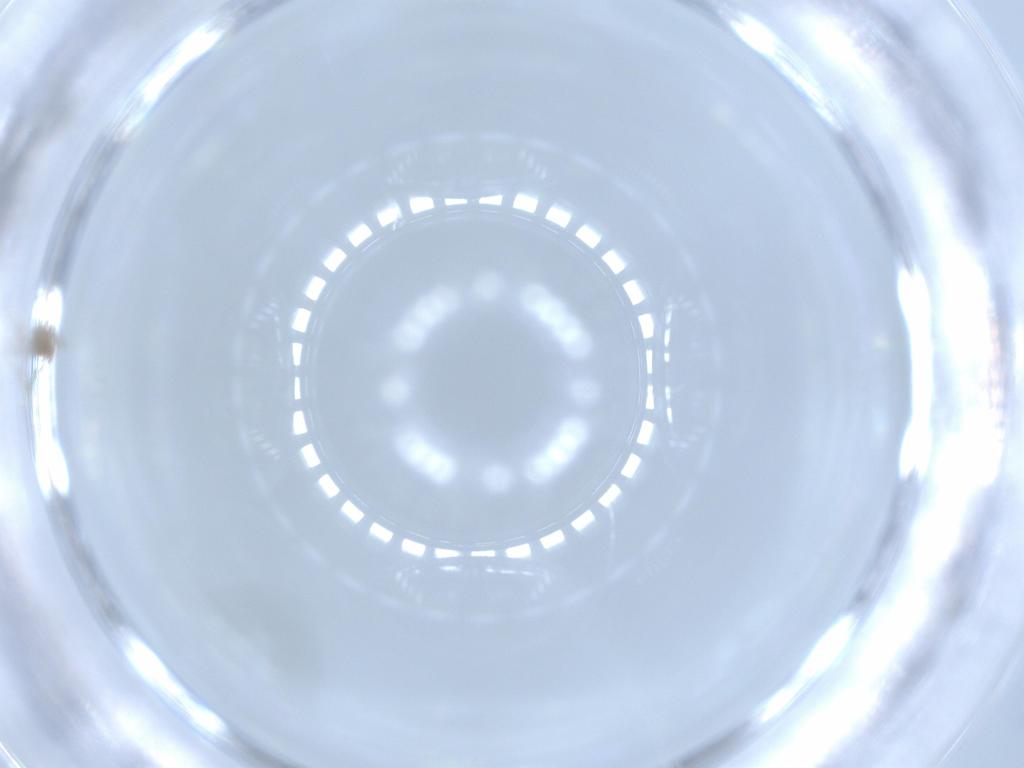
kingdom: Animalia
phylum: Arthropoda
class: Insecta
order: Diptera
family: Cecidomyiidae
